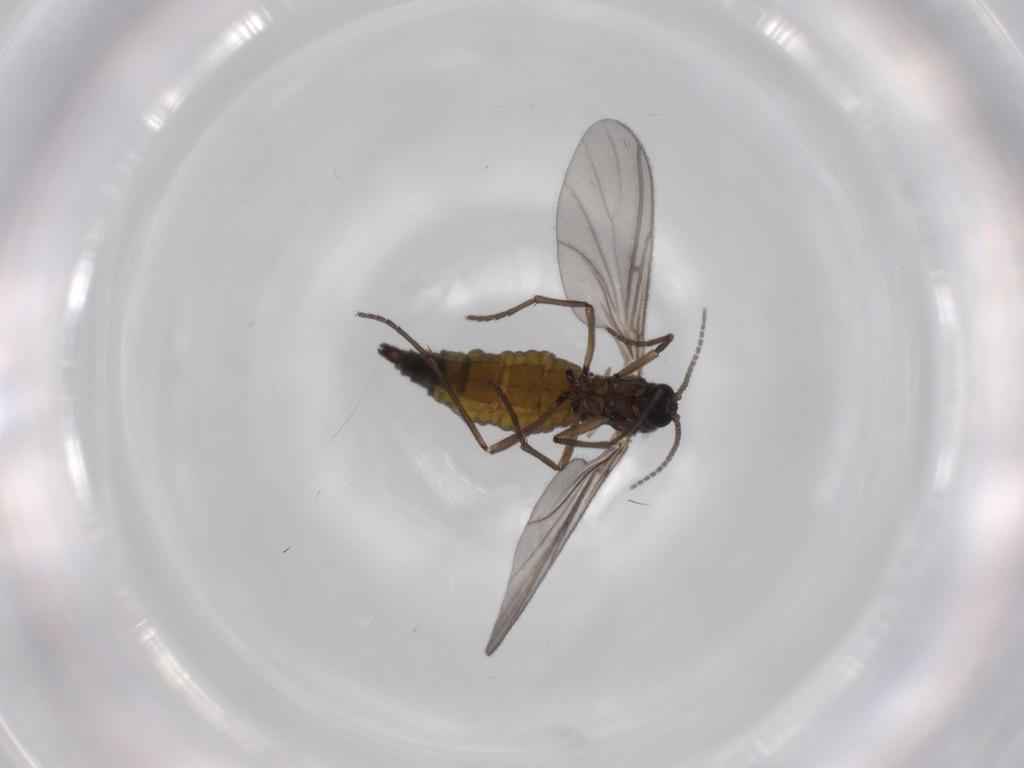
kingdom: Animalia
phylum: Arthropoda
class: Insecta
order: Diptera
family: Sciaridae
